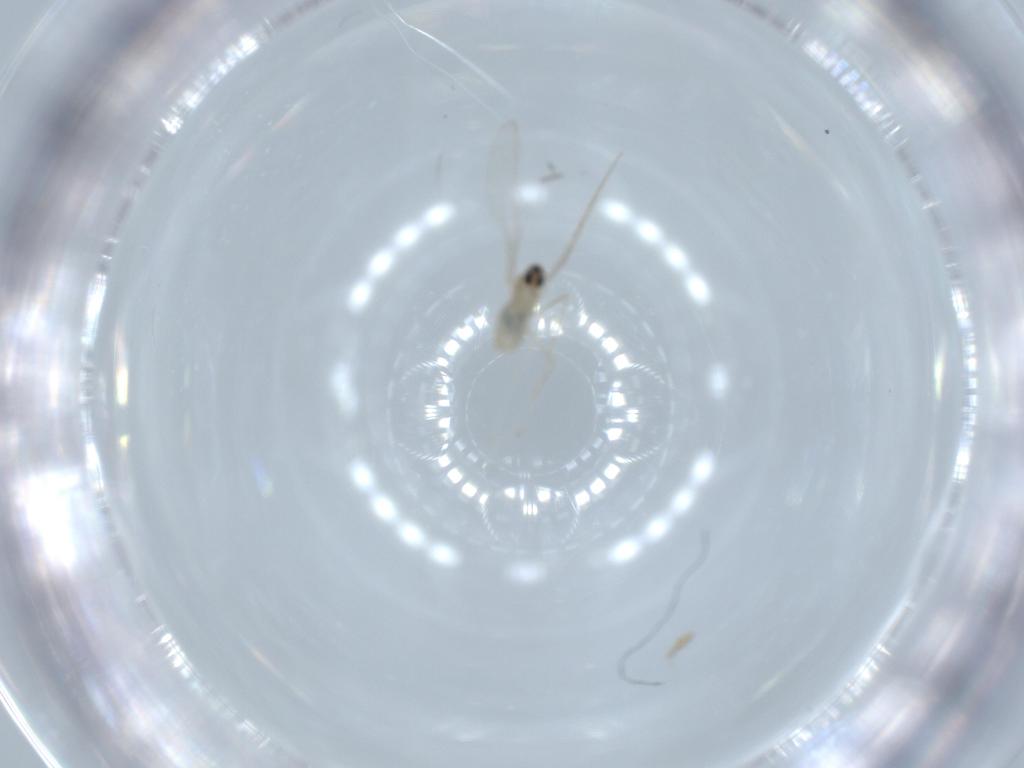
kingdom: Animalia
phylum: Arthropoda
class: Insecta
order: Diptera
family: Cecidomyiidae
